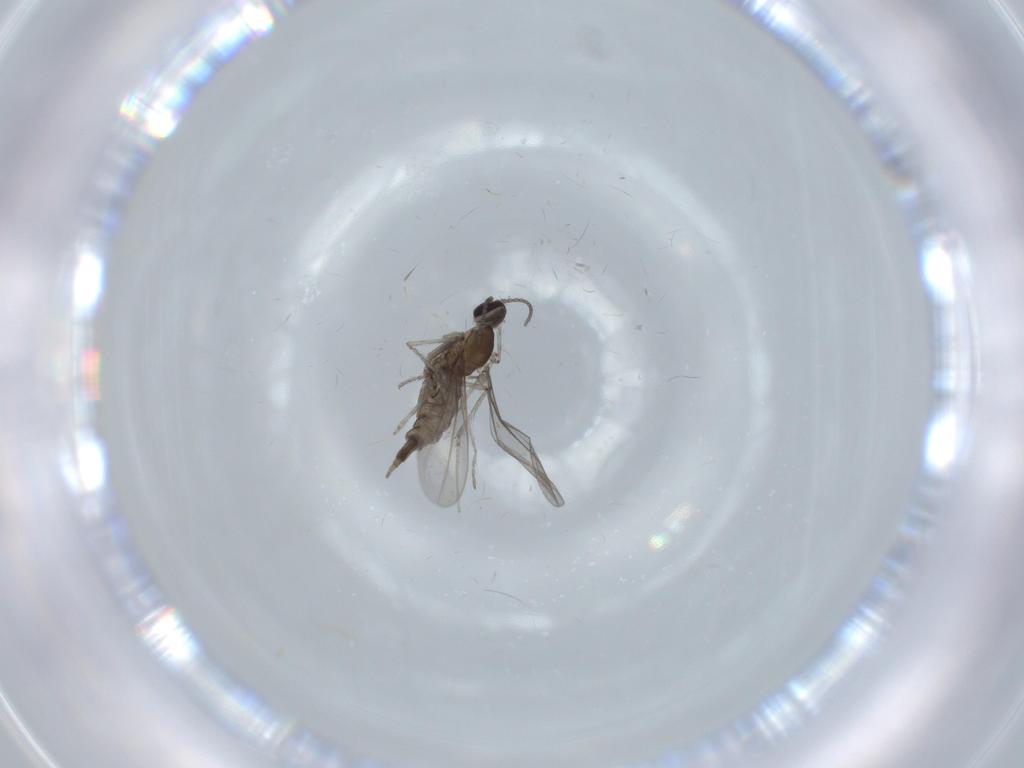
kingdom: Animalia
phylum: Arthropoda
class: Insecta
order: Diptera
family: Cecidomyiidae
